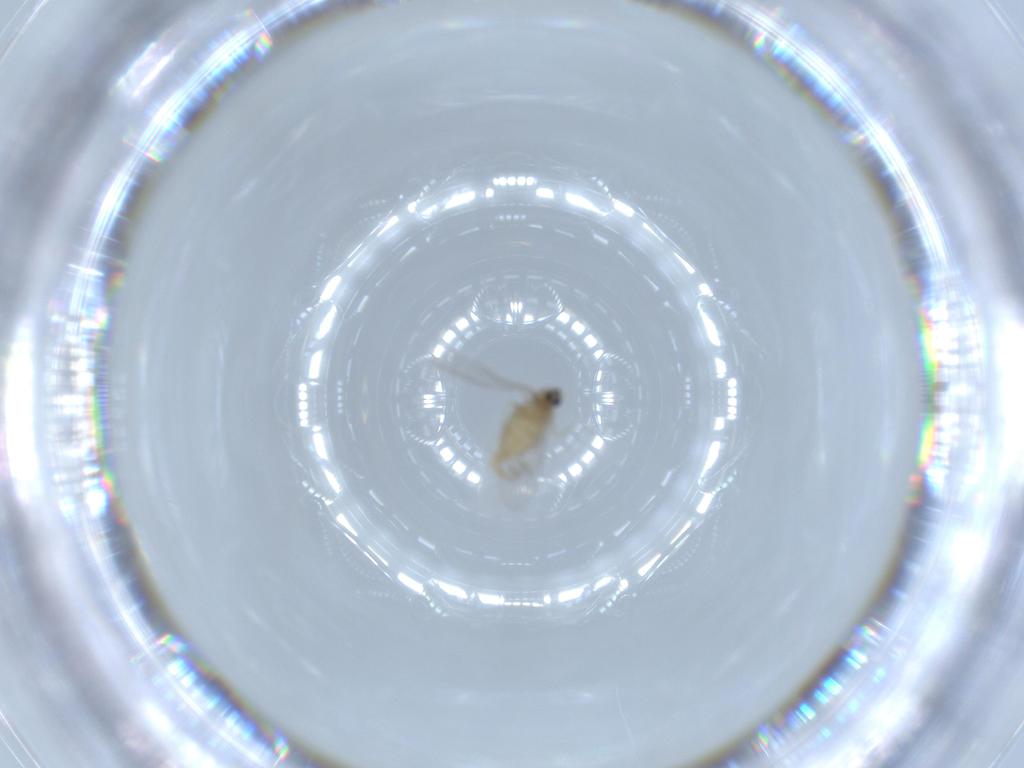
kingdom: Animalia
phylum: Arthropoda
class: Insecta
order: Diptera
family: Cecidomyiidae
